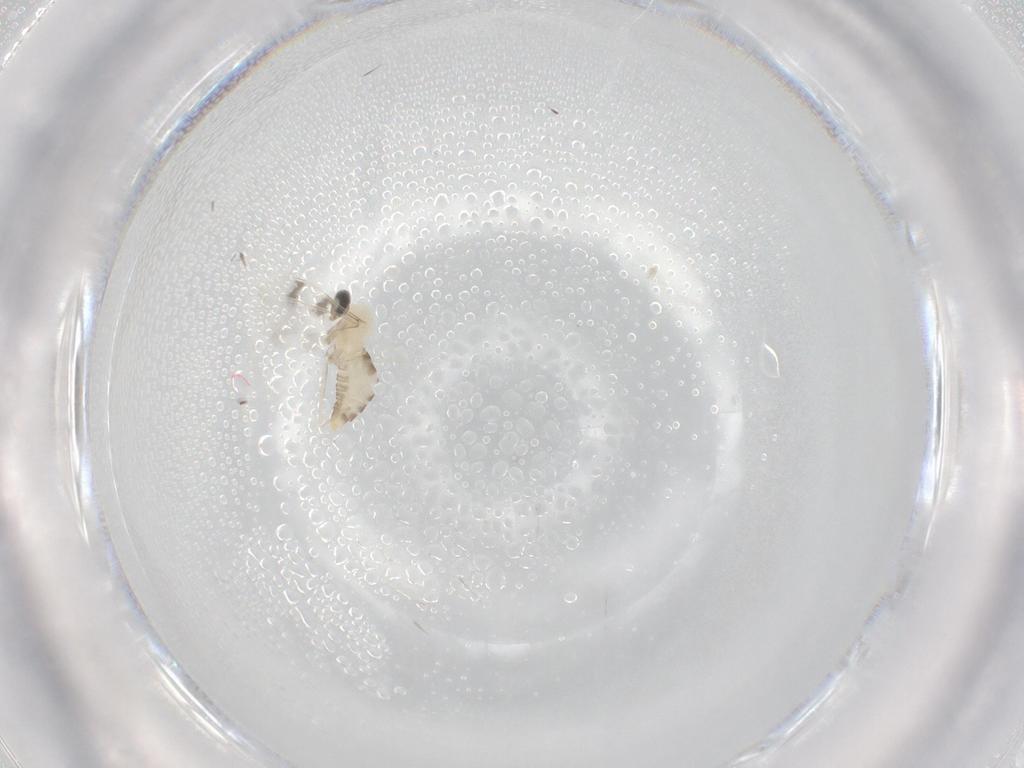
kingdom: Animalia
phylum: Arthropoda
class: Insecta
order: Diptera
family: Cecidomyiidae
